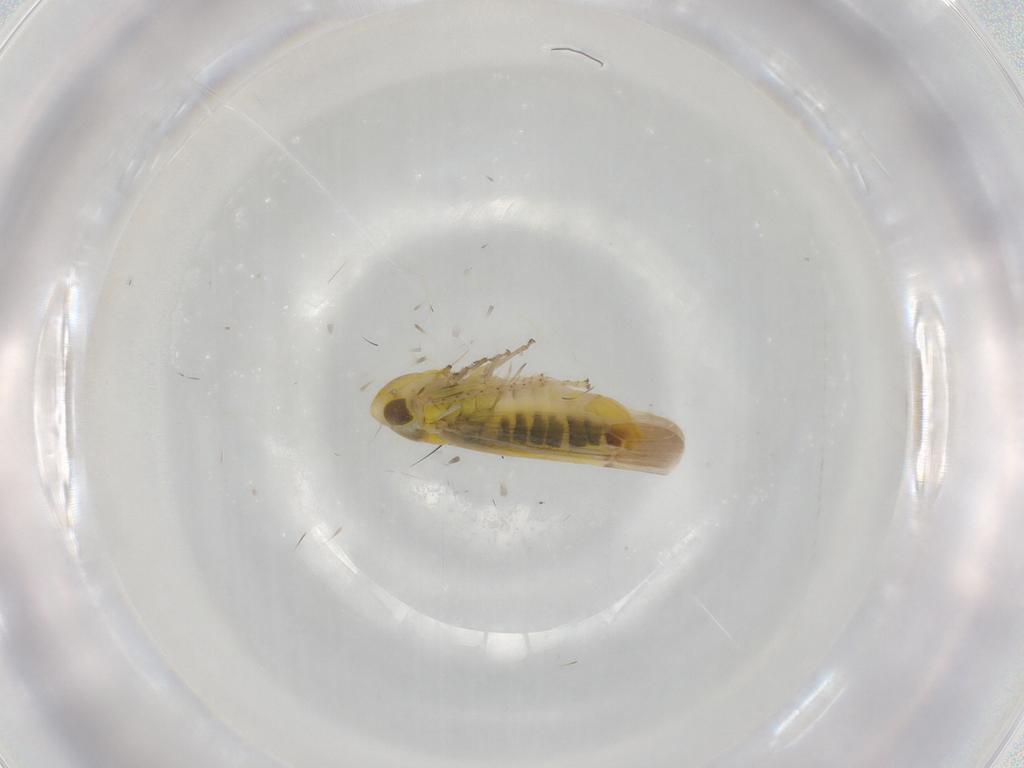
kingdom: Animalia
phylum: Arthropoda
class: Insecta
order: Hemiptera
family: Cicadellidae
